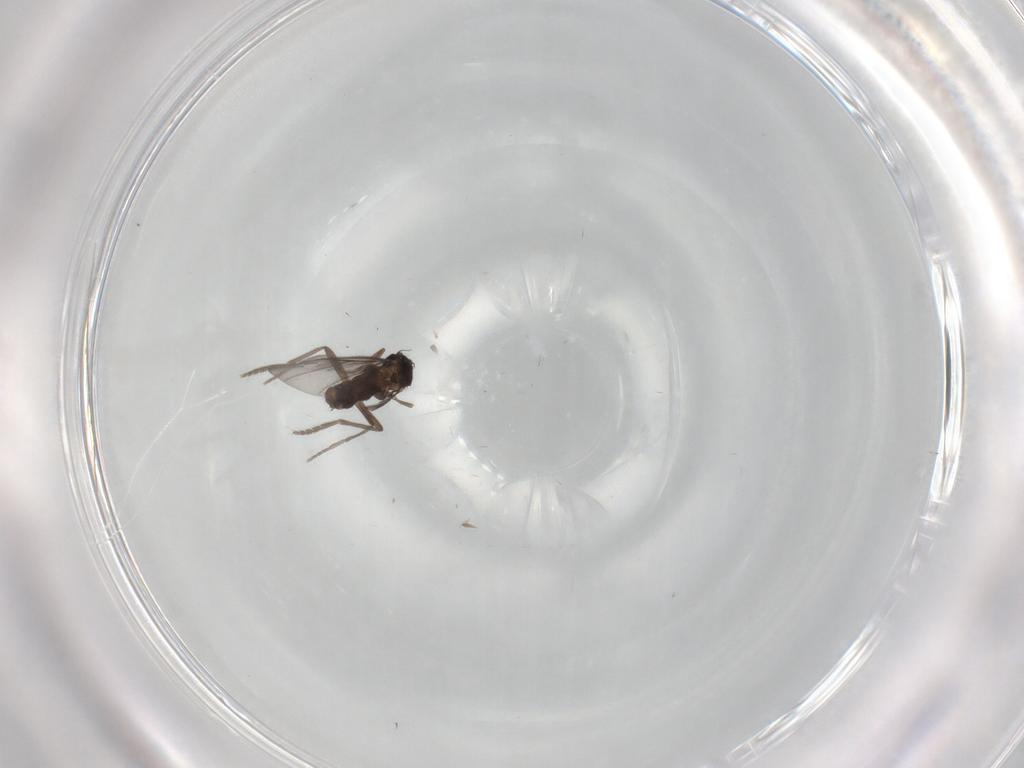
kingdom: Animalia
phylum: Arthropoda
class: Insecta
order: Diptera
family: Phoridae
